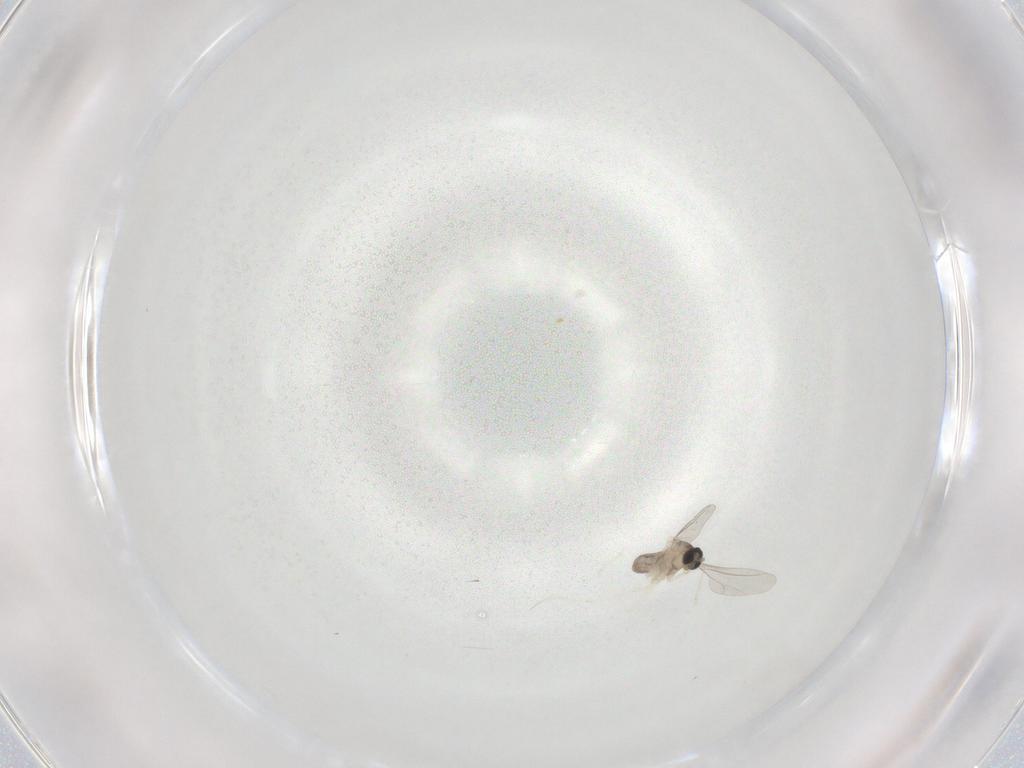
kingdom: Animalia
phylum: Arthropoda
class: Insecta
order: Diptera
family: Cecidomyiidae
